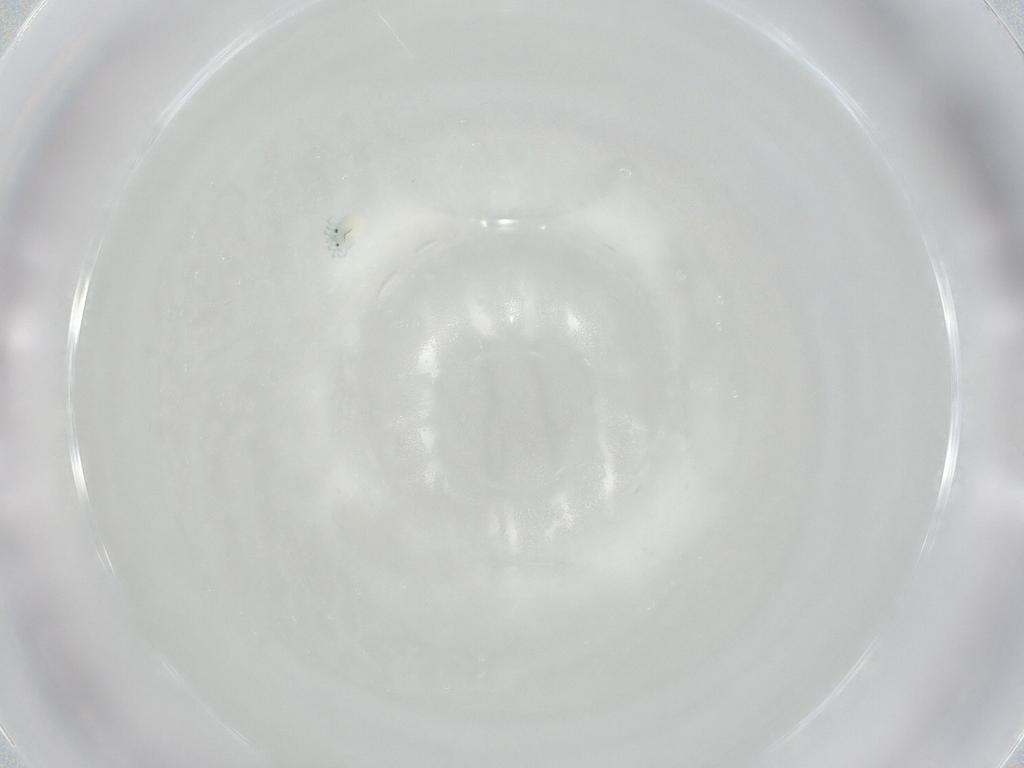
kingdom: Animalia
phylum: Arthropoda
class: Arachnida
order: Trombidiformes
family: Arrenuridae
